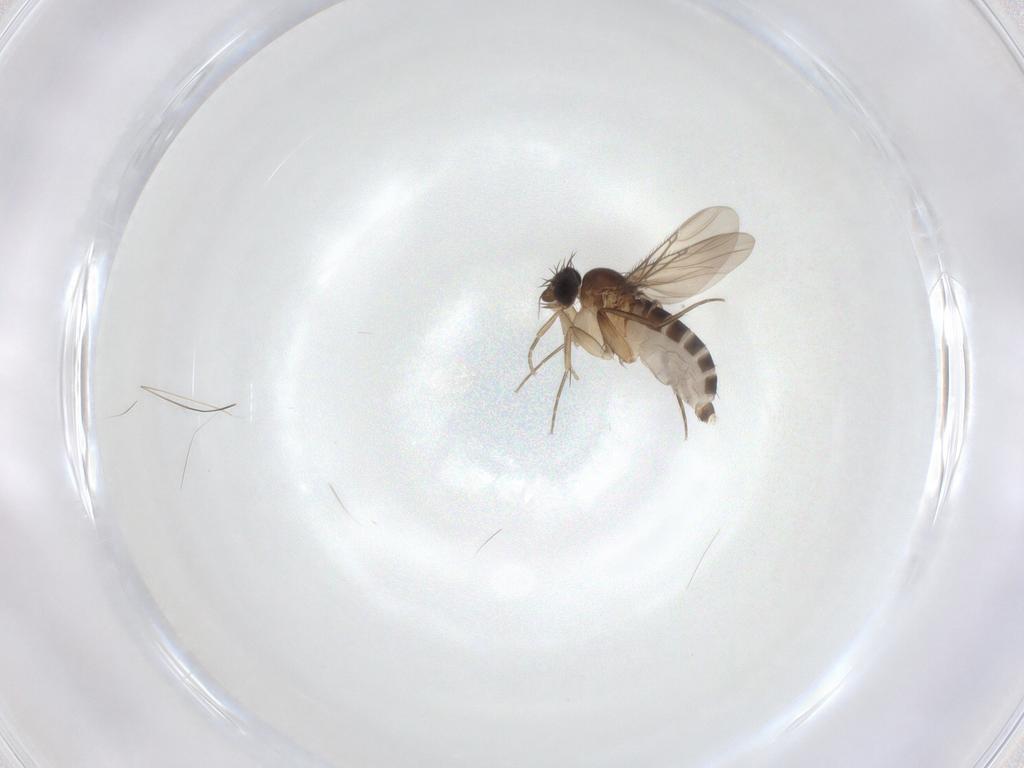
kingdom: Animalia
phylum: Arthropoda
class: Insecta
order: Diptera
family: Phoridae
